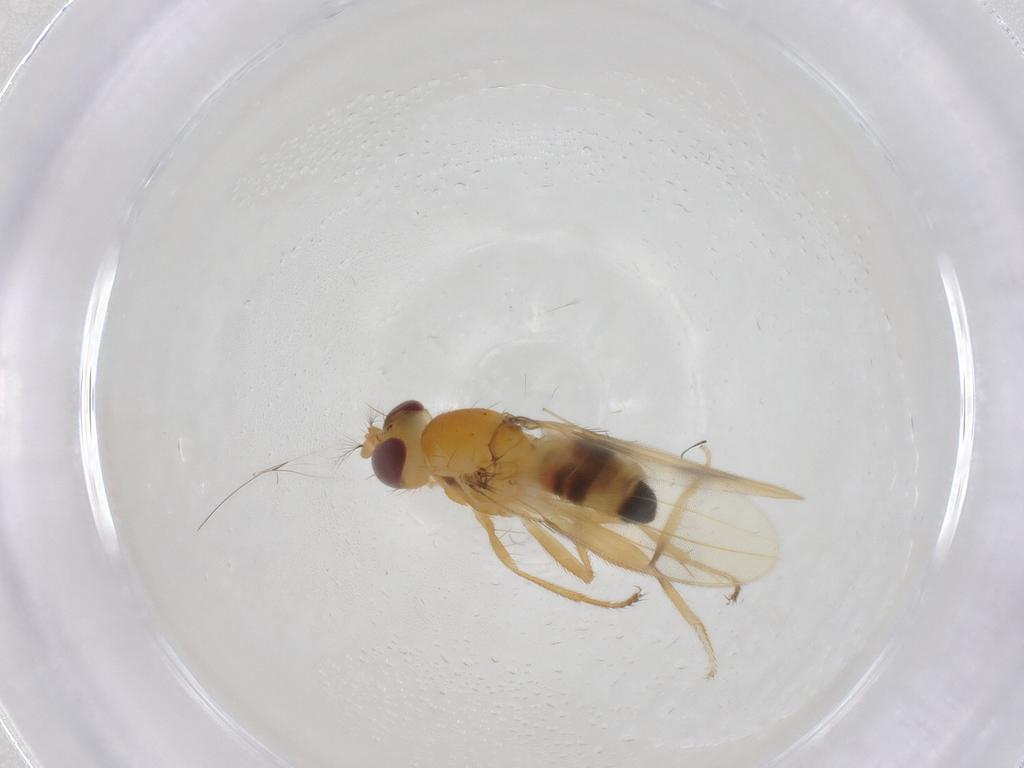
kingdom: Animalia
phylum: Arthropoda
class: Insecta
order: Diptera
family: Periscelididae
